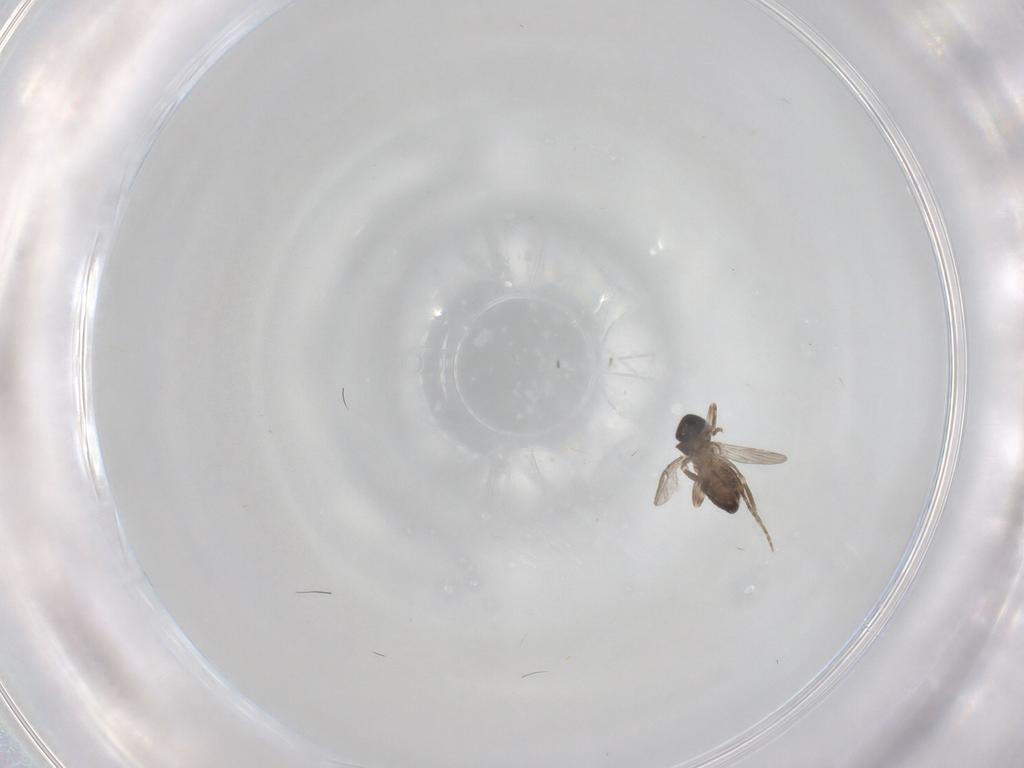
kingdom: Animalia
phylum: Arthropoda
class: Insecta
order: Diptera
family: Ceratopogonidae
